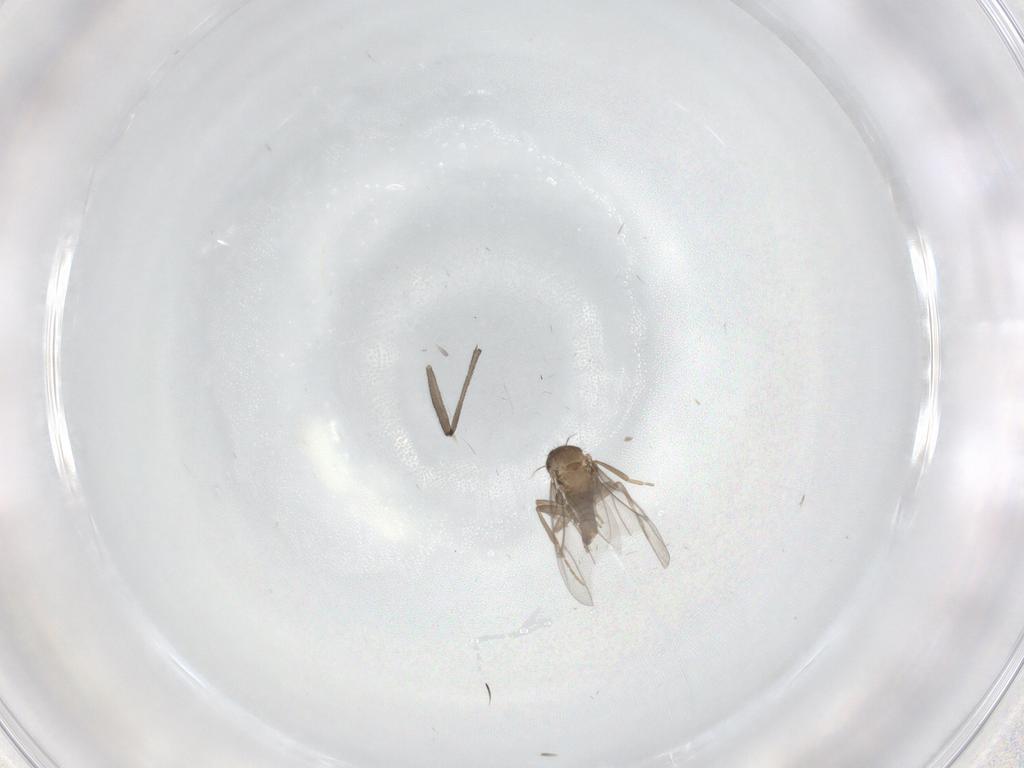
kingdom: Animalia
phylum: Arthropoda
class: Insecta
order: Diptera
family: Sciaridae
